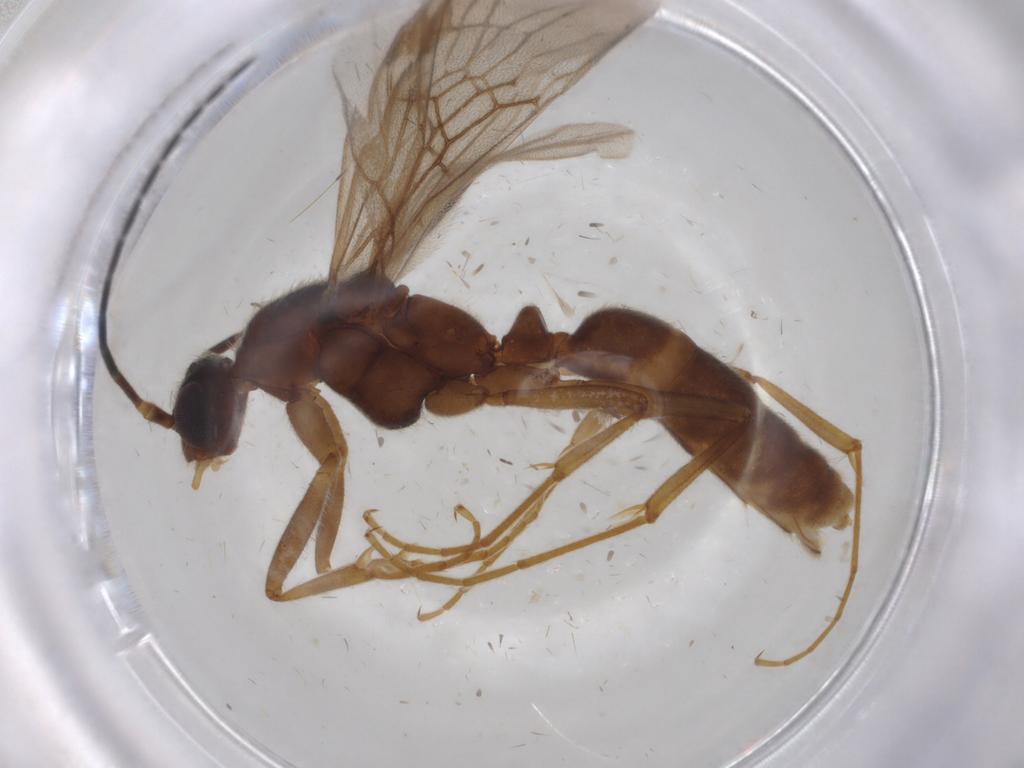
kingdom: Animalia
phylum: Arthropoda
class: Insecta
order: Hymenoptera
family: Formicidae
